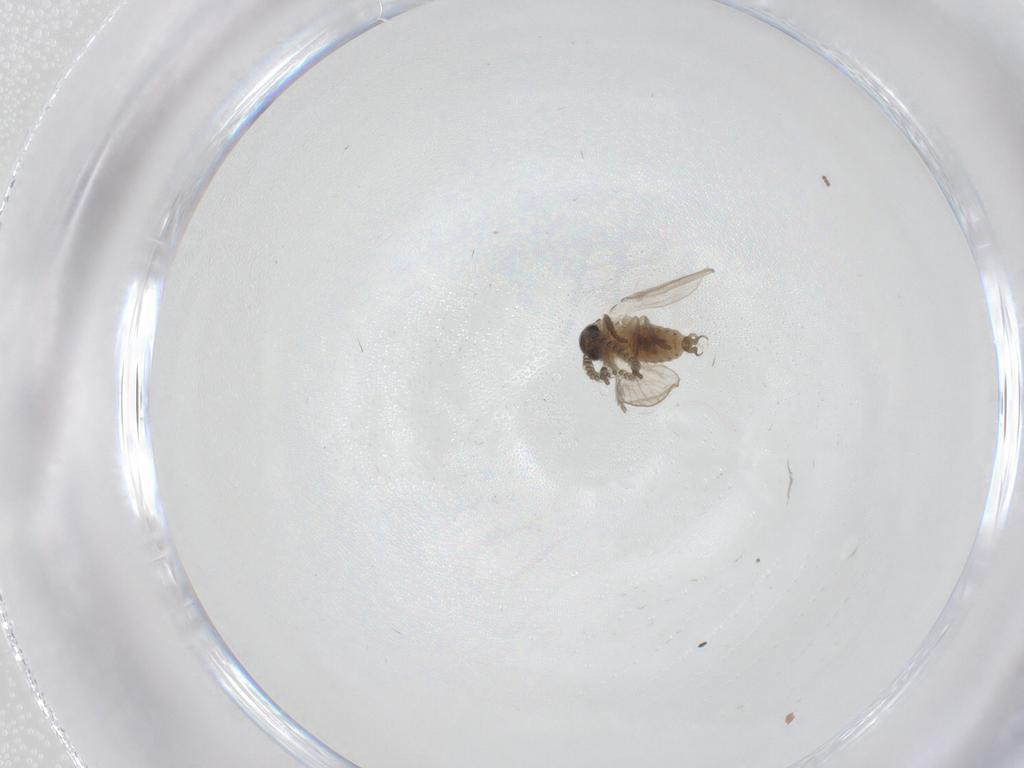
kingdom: Animalia
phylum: Arthropoda
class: Insecta
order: Diptera
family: Psychodidae
